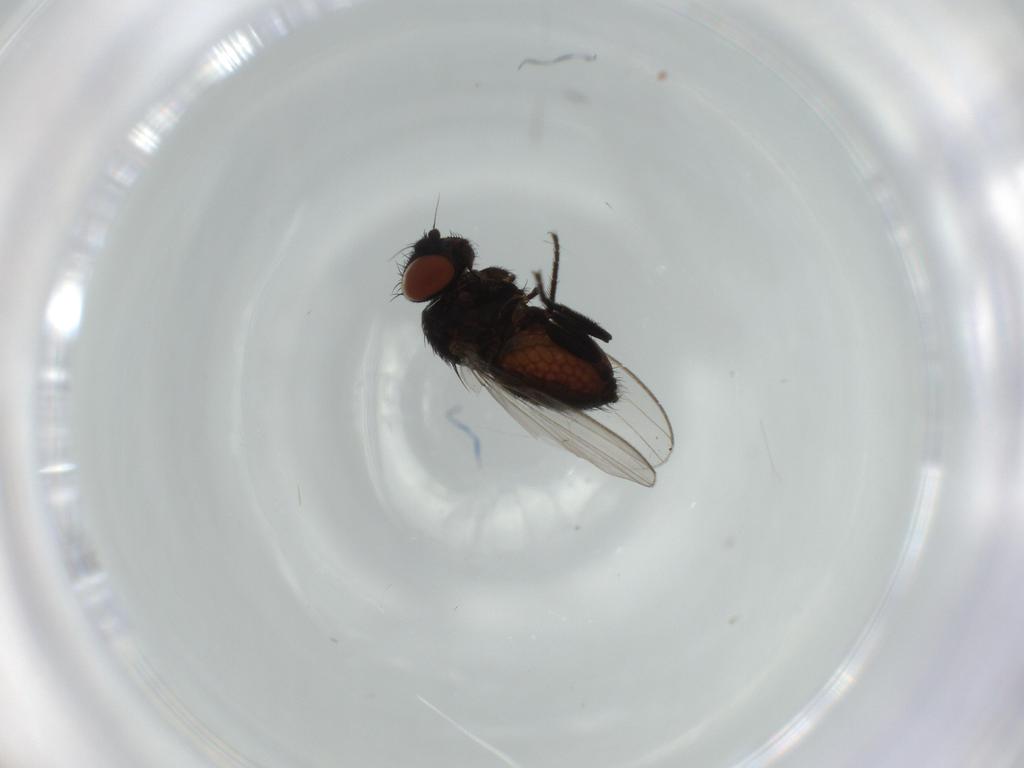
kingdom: Animalia
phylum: Arthropoda
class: Insecta
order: Diptera
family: Milichiidae
